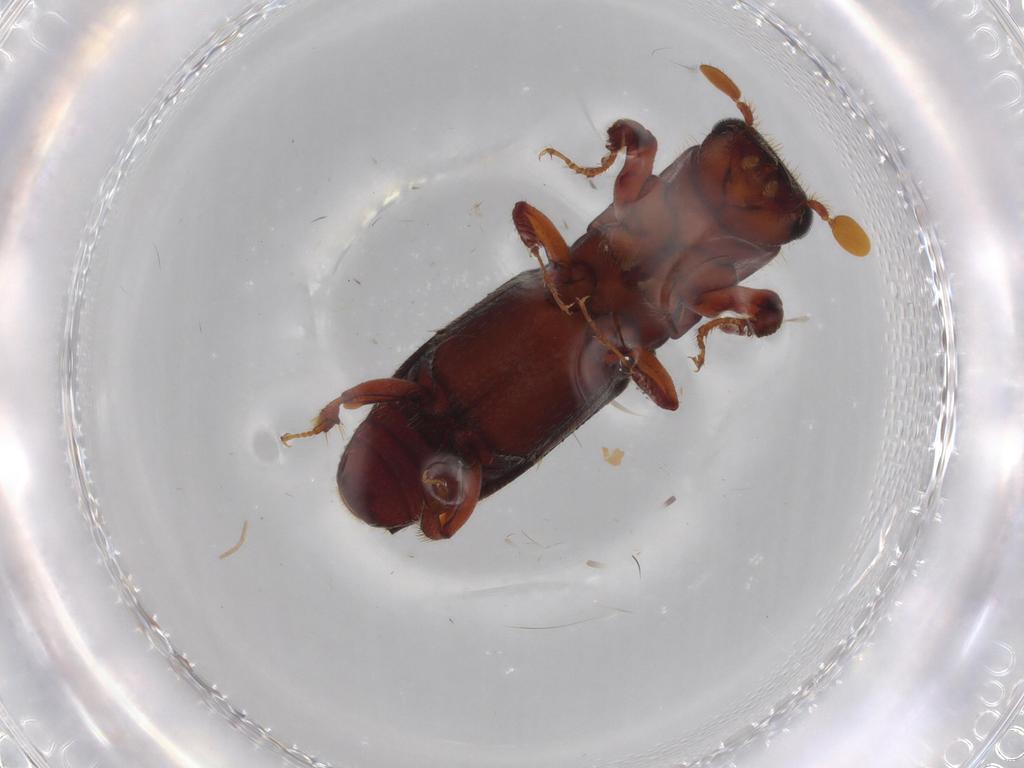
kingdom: Animalia
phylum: Arthropoda
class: Insecta
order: Coleoptera
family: Curculionidae
